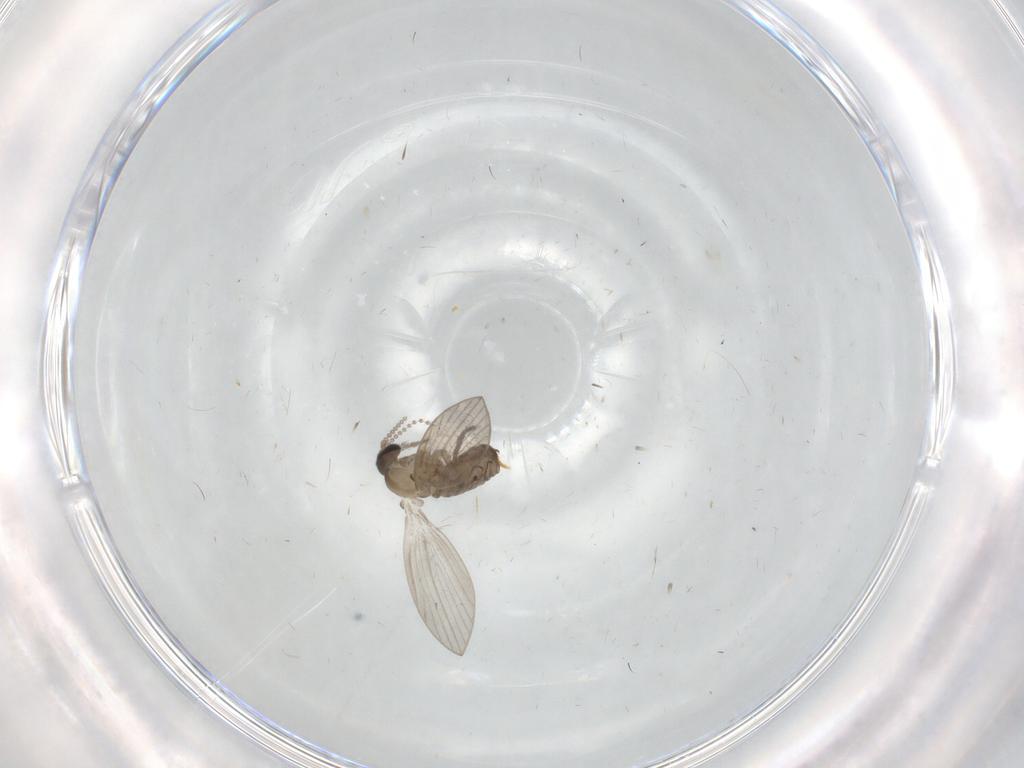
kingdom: Animalia
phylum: Arthropoda
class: Insecta
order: Diptera
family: Psychodidae
